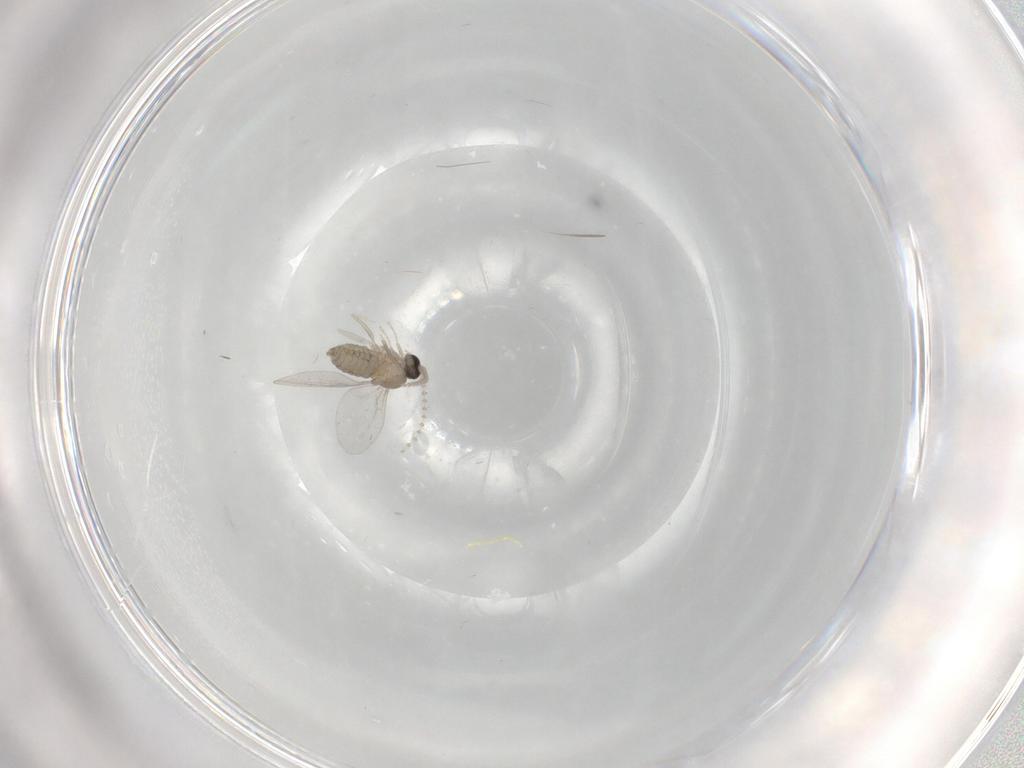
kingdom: Animalia
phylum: Arthropoda
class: Insecta
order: Diptera
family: Cecidomyiidae
